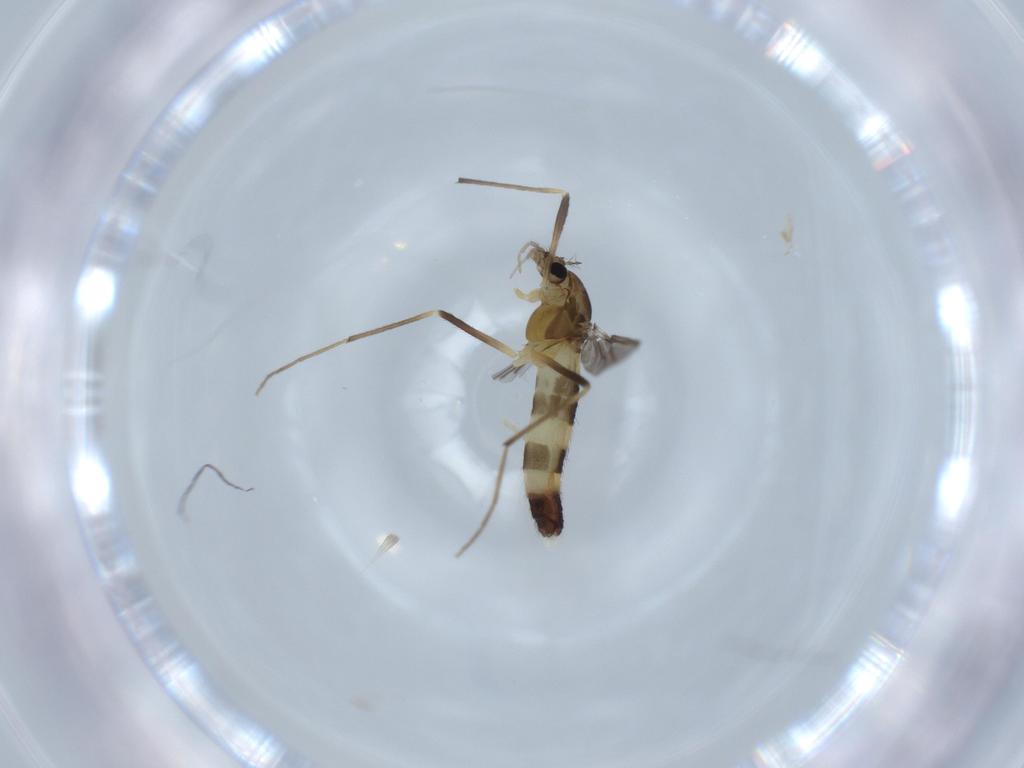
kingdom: Animalia
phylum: Arthropoda
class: Insecta
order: Diptera
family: Chironomidae
